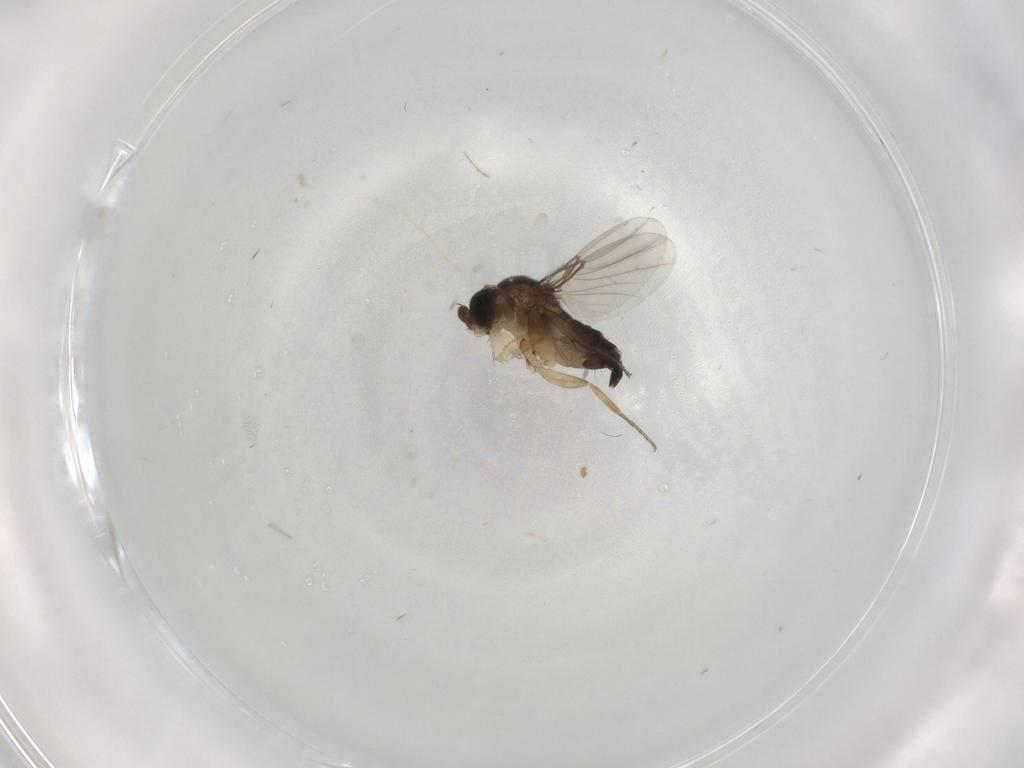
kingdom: Animalia
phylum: Arthropoda
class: Insecta
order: Diptera
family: Phoridae
